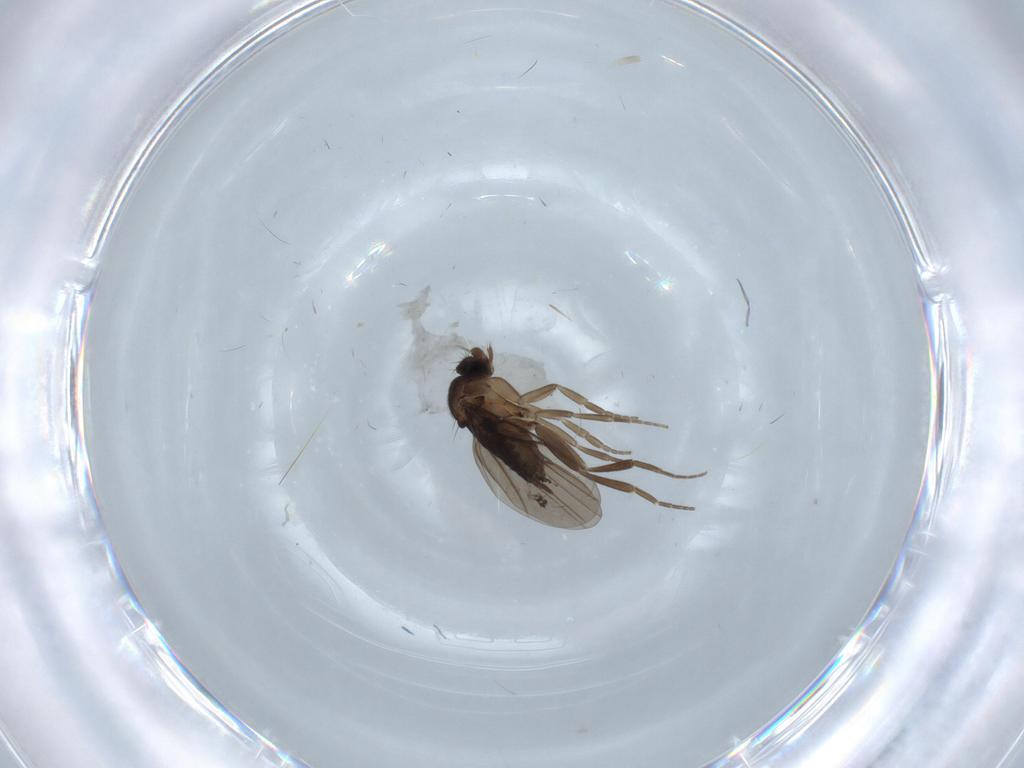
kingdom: Animalia
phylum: Arthropoda
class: Insecta
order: Diptera
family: Phoridae
